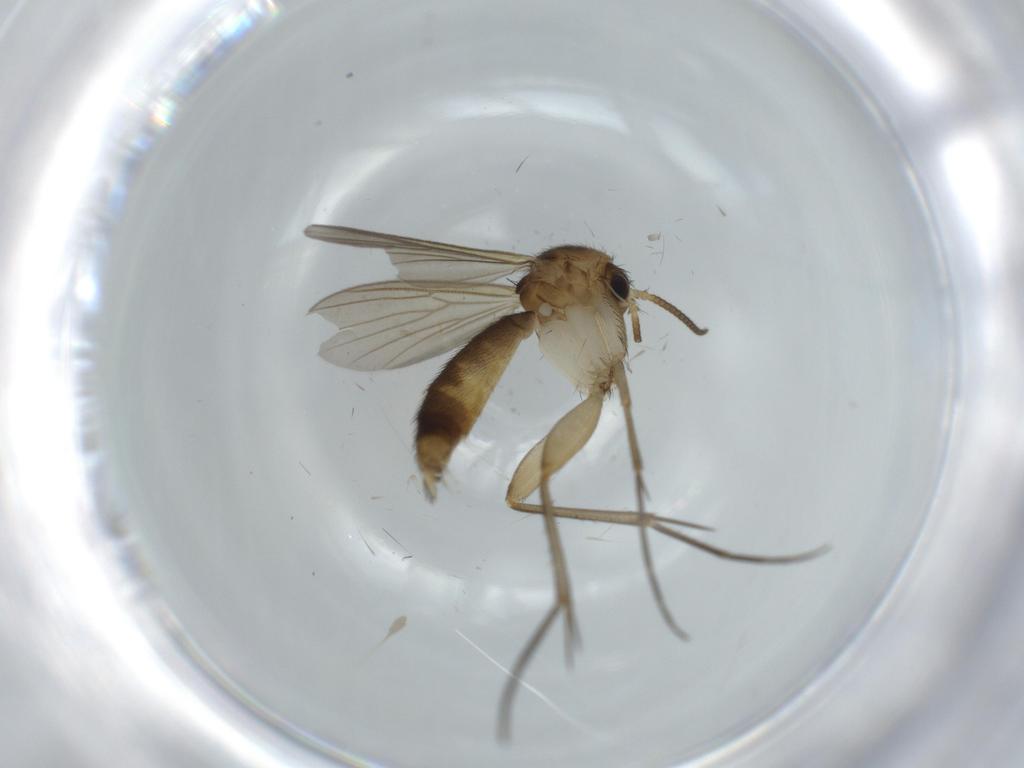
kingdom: Animalia
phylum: Arthropoda
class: Insecta
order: Diptera
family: Mycetophilidae
